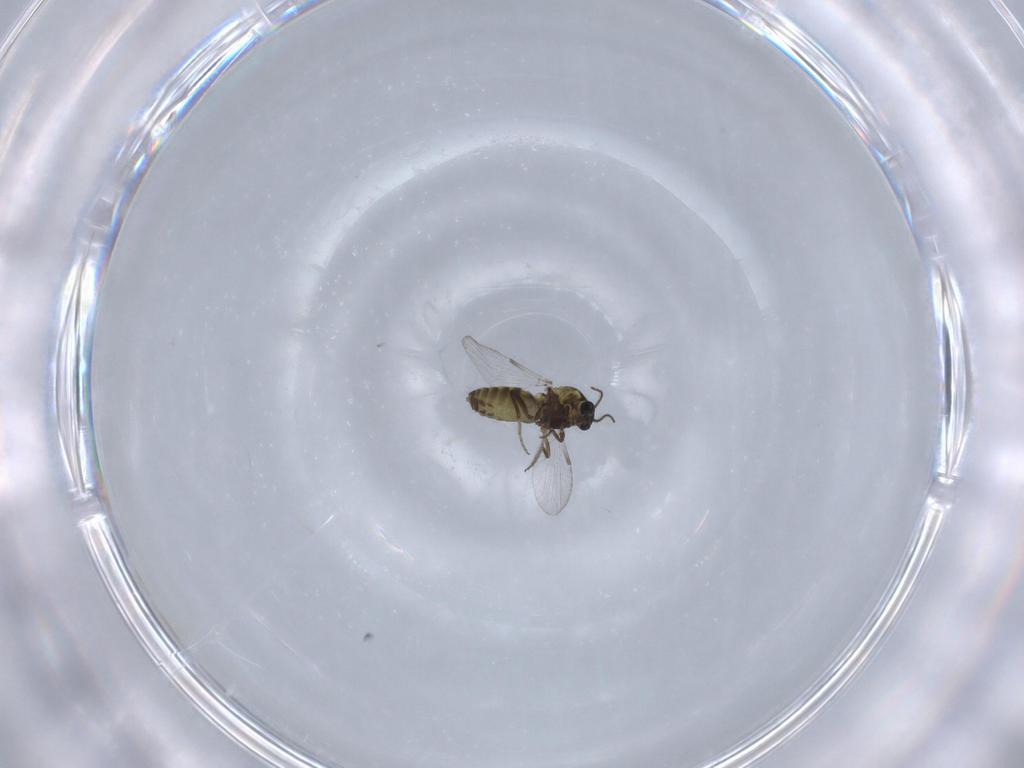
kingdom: Animalia
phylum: Arthropoda
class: Insecta
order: Diptera
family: Ceratopogonidae
